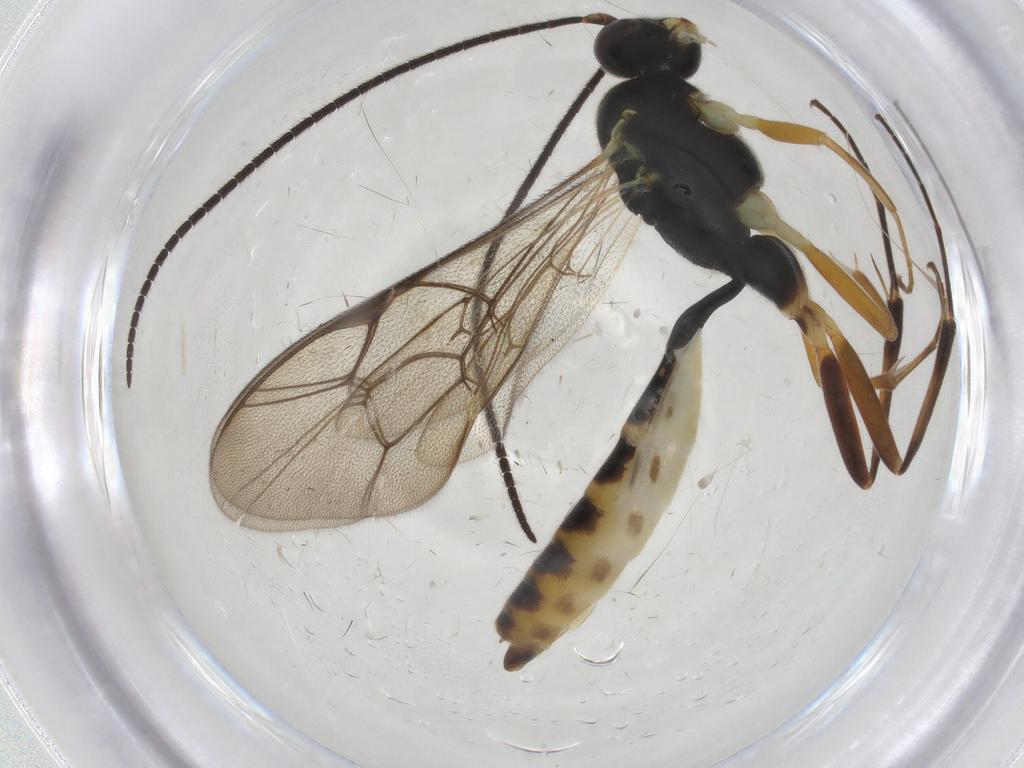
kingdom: Animalia
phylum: Arthropoda
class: Insecta
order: Hymenoptera
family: Ichneumonidae
